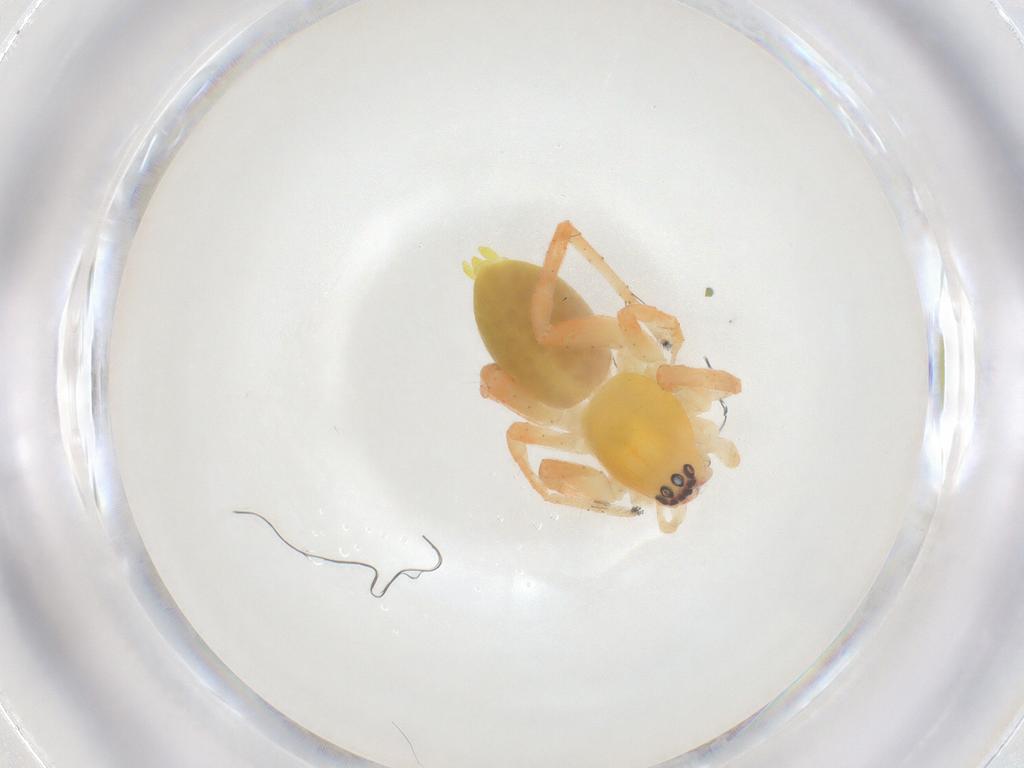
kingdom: Animalia
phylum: Arthropoda
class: Arachnida
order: Araneae
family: Anyphaenidae
